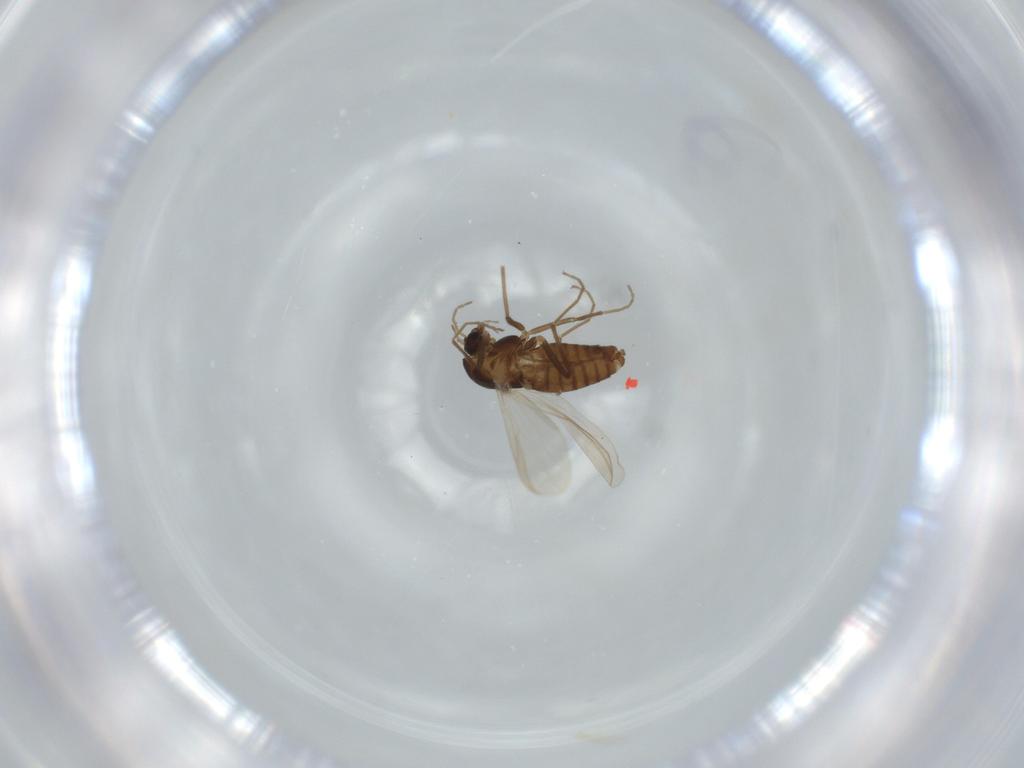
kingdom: Animalia
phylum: Arthropoda
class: Insecta
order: Diptera
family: Chironomidae
